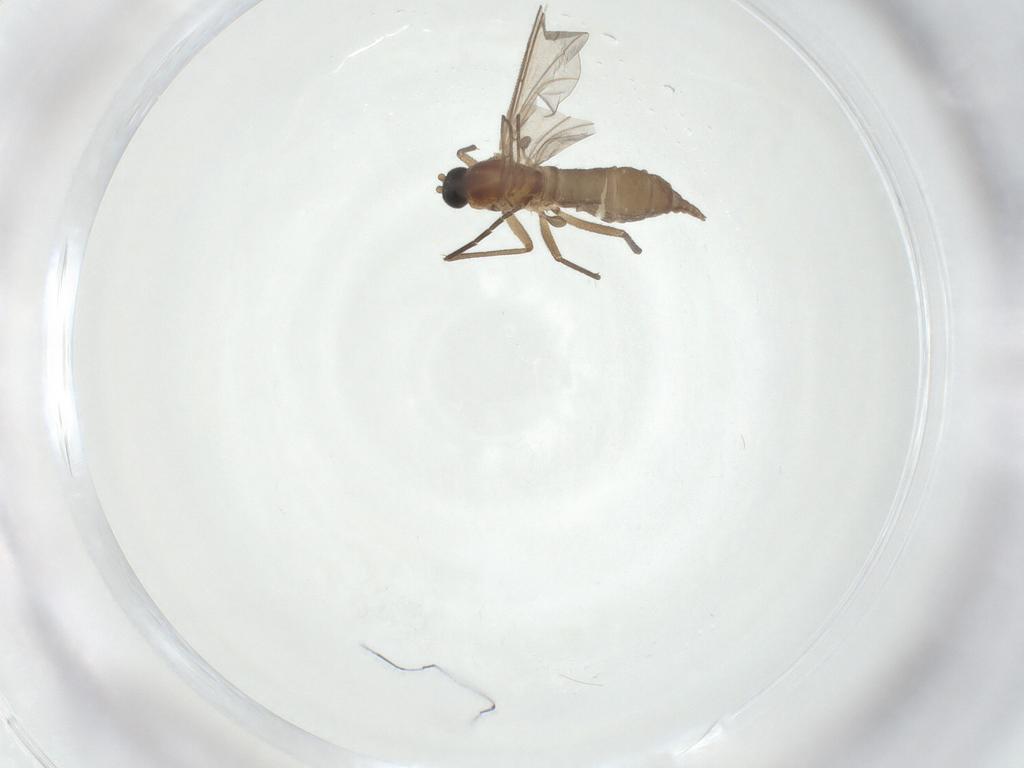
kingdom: Animalia
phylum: Arthropoda
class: Insecta
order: Diptera
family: Sciaridae
